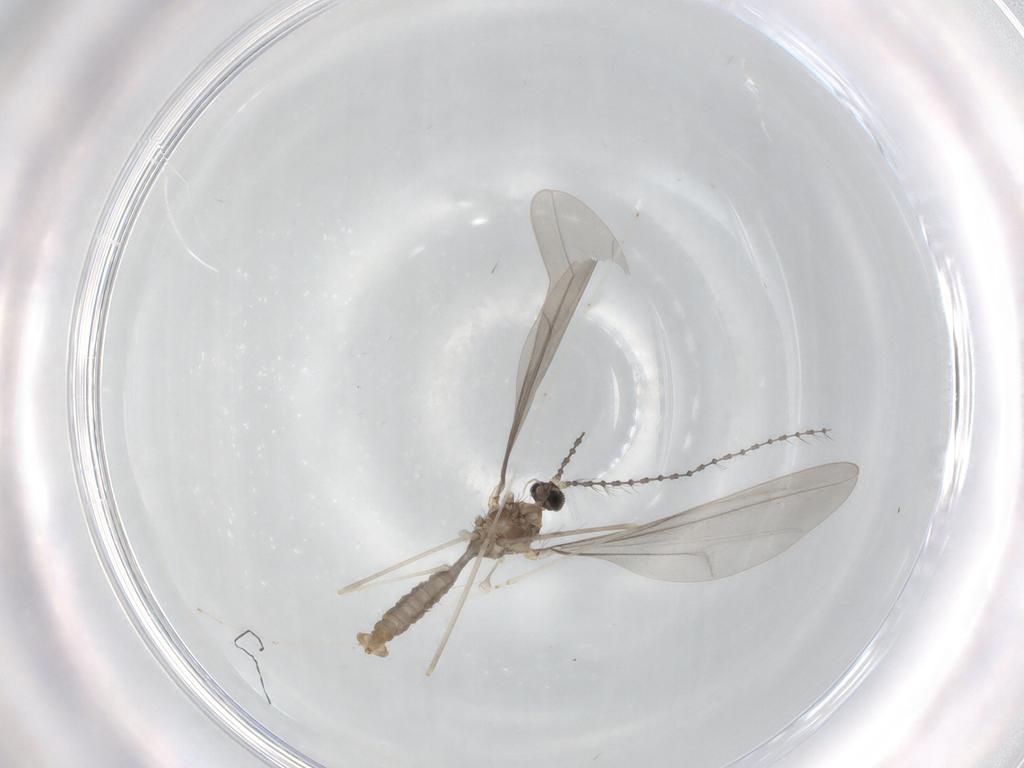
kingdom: Animalia
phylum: Arthropoda
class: Insecta
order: Diptera
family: Cecidomyiidae
